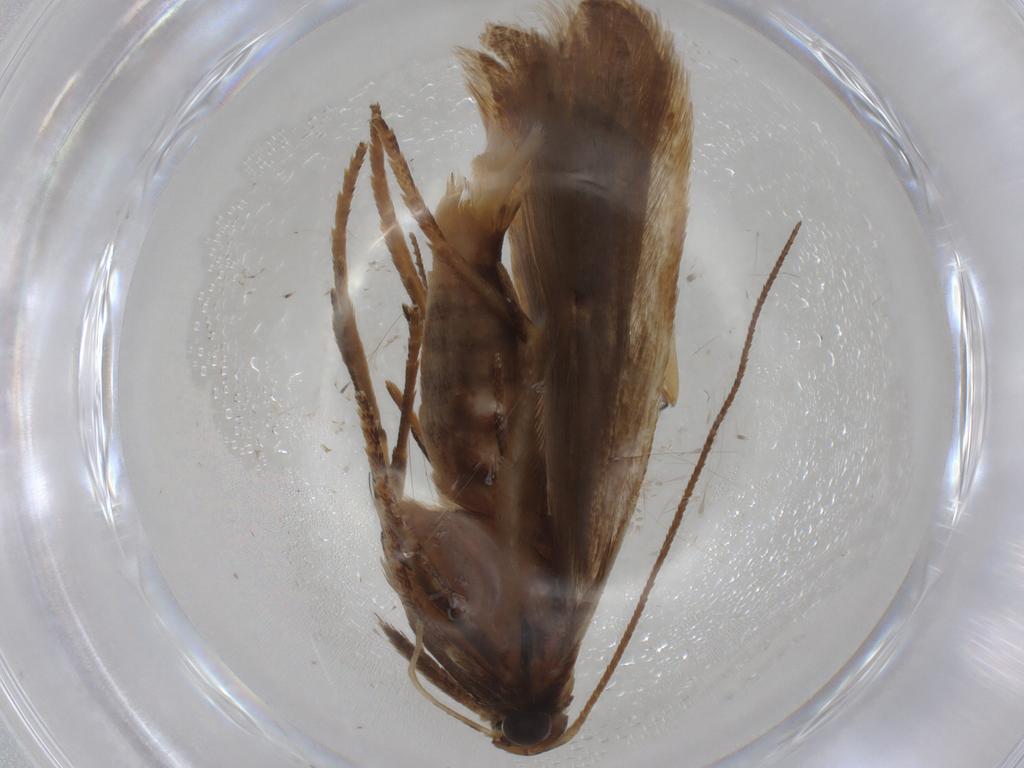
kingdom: Animalia
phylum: Arthropoda
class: Insecta
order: Lepidoptera
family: Gelechiidae
